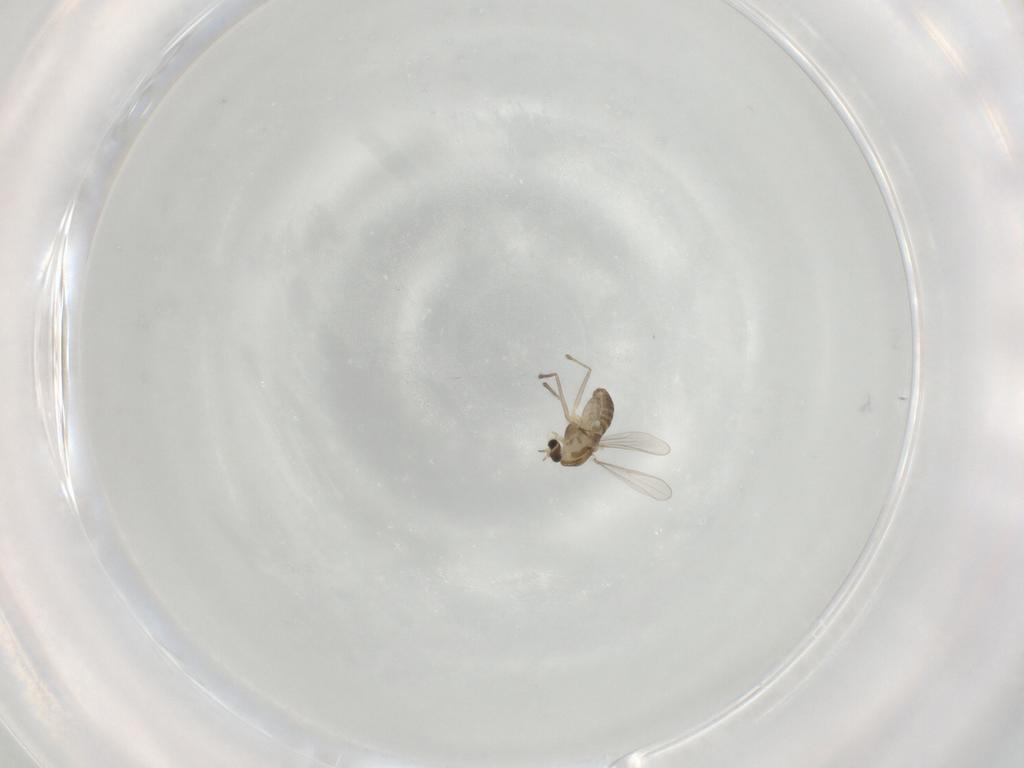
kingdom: Animalia
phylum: Arthropoda
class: Insecta
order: Diptera
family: Chironomidae
